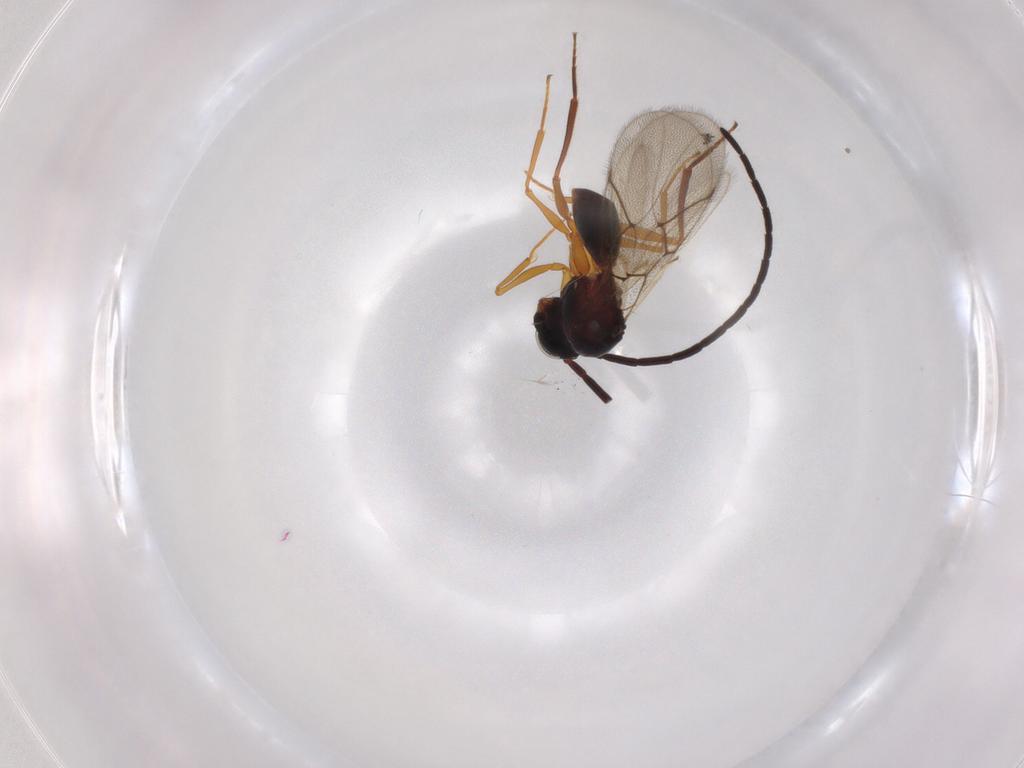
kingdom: Animalia
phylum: Arthropoda
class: Insecta
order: Hymenoptera
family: Figitidae
